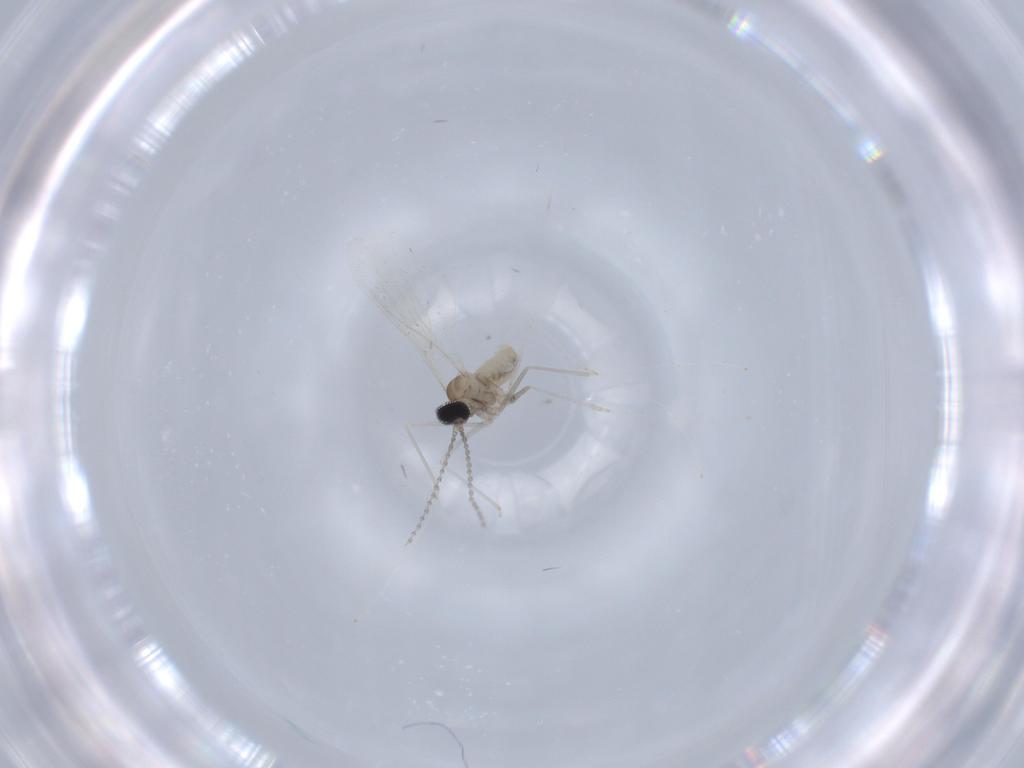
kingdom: Animalia
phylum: Arthropoda
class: Insecta
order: Diptera
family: Cecidomyiidae
